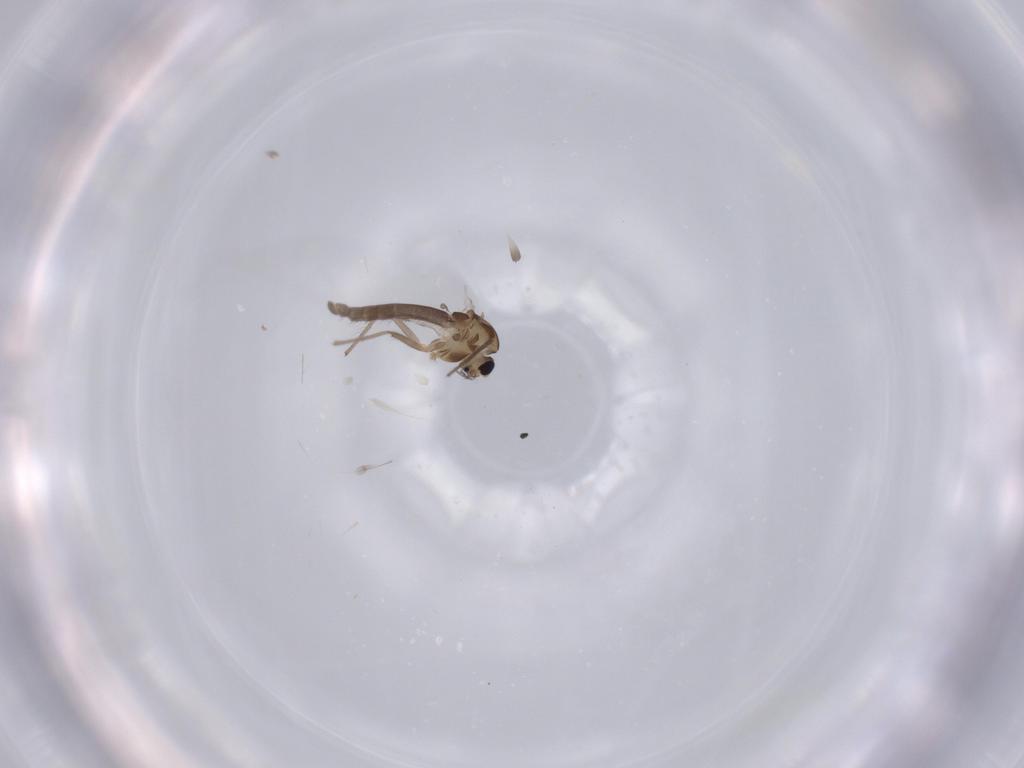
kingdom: Animalia
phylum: Arthropoda
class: Insecta
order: Diptera
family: Chironomidae
